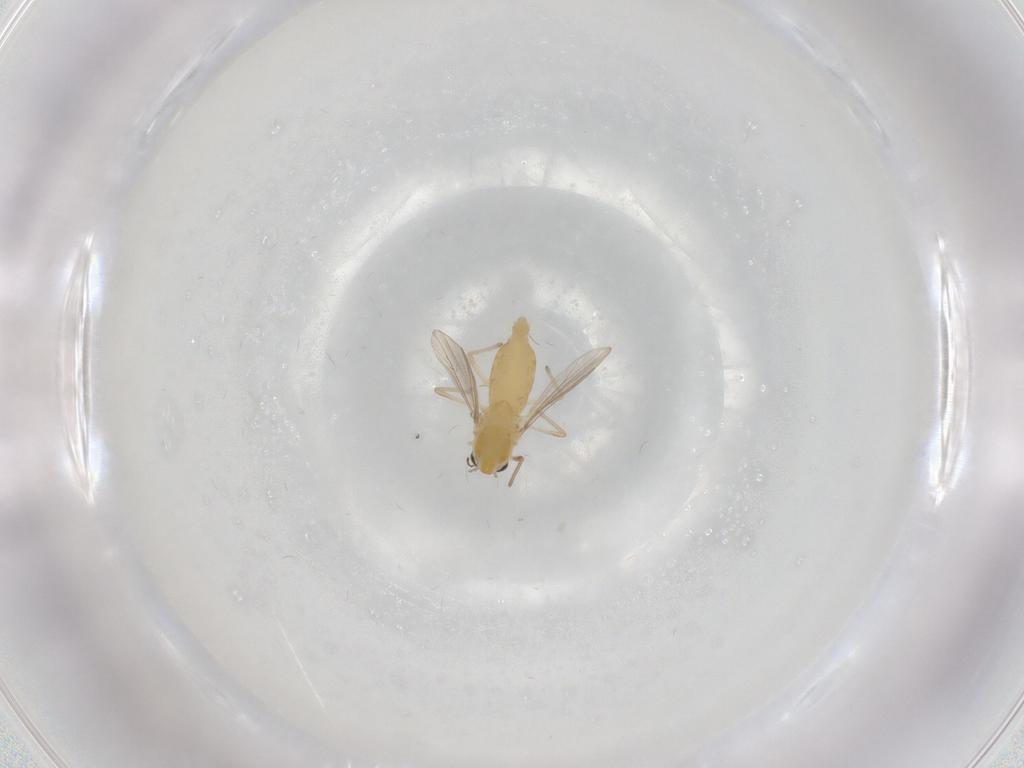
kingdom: Animalia
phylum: Arthropoda
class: Insecta
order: Diptera
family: Chironomidae
